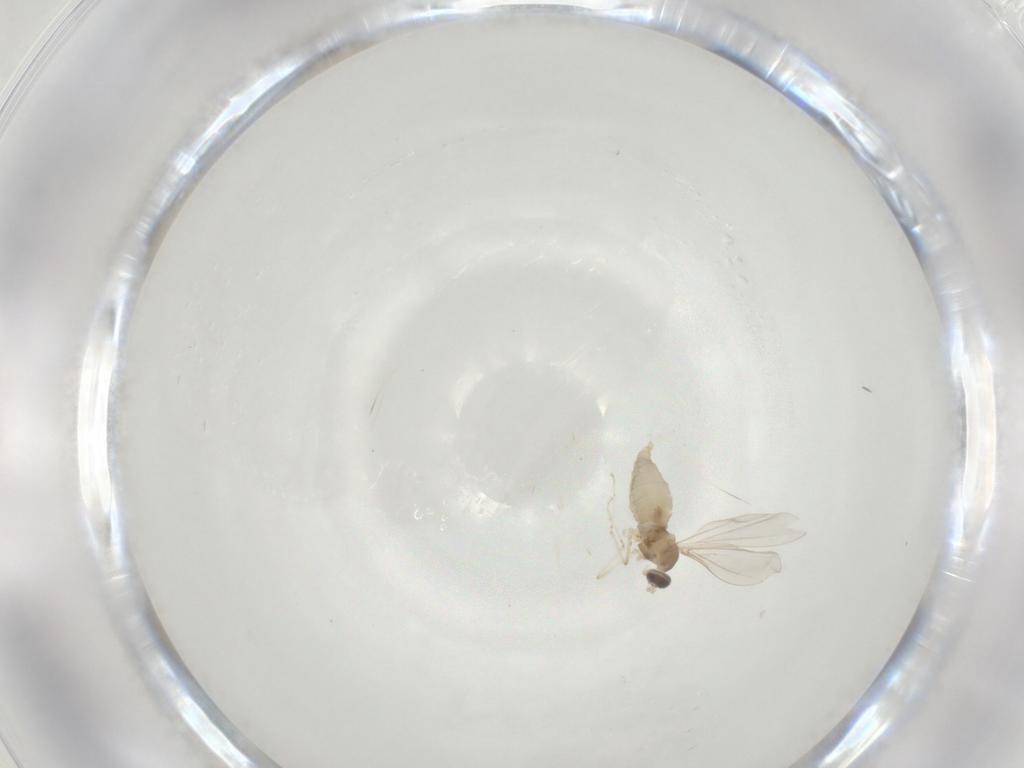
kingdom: Animalia
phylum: Arthropoda
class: Insecta
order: Diptera
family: Cecidomyiidae
